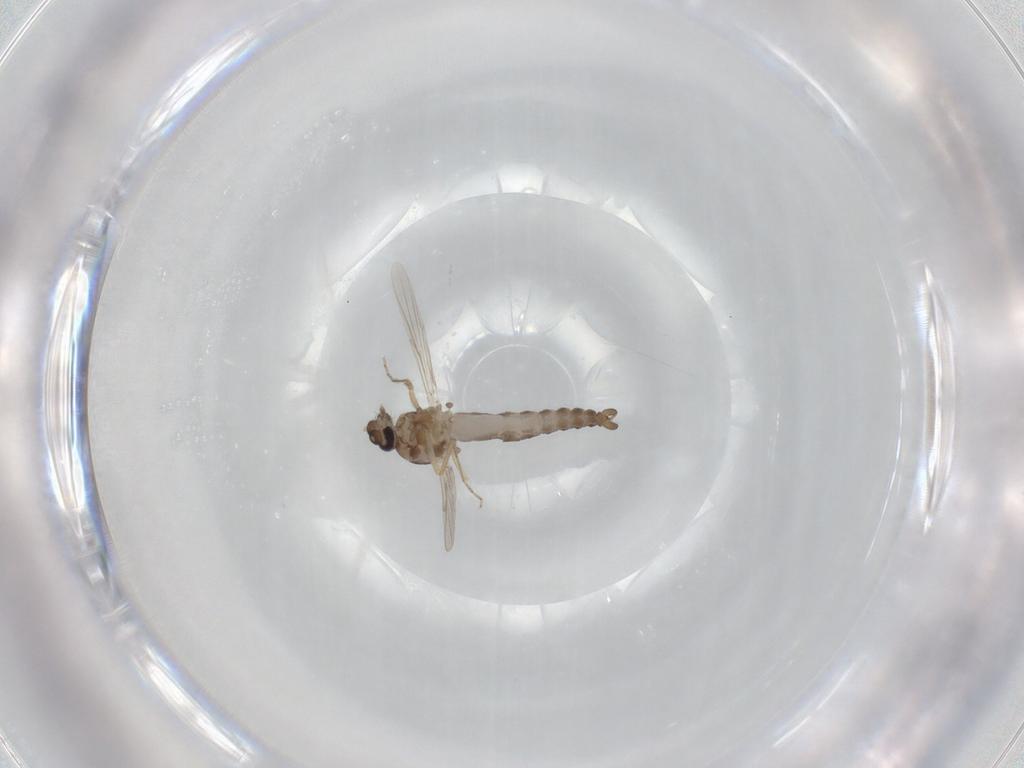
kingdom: Animalia
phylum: Arthropoda
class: Insecta
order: Diptera
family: Ceratopogonidae
